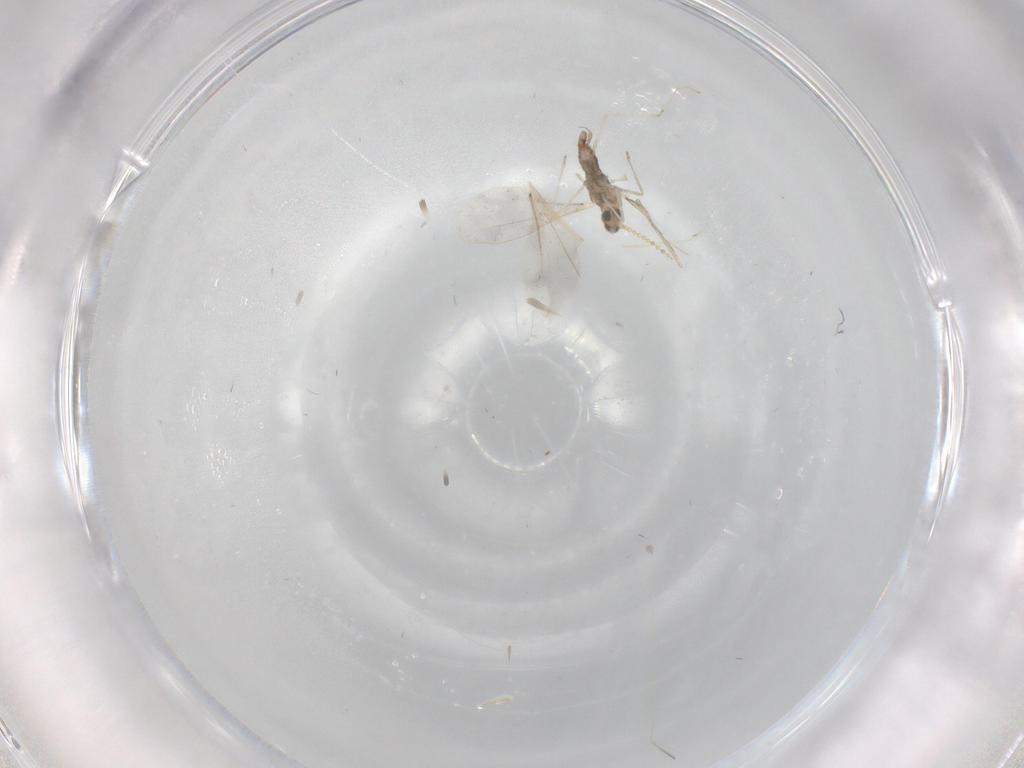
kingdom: Animalia
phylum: Arthropoda
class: Insecta
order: Diptera
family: Cecidomyiidae
